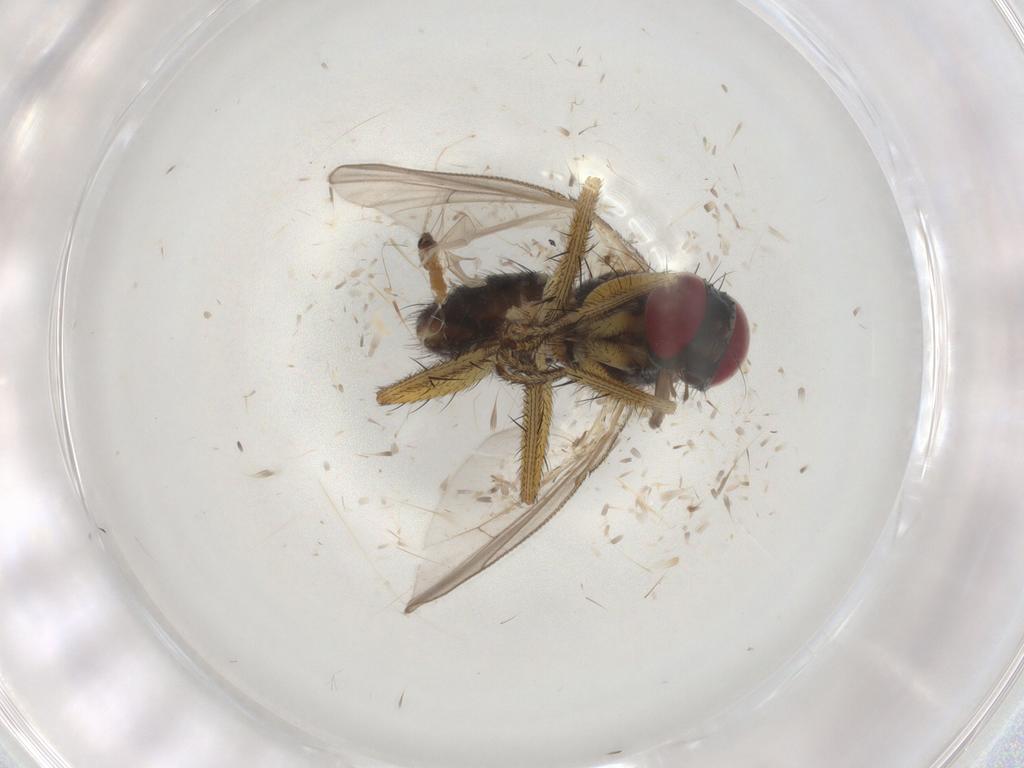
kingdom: Animalia
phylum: Arthropoda
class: Insecta
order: Diptera
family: Muscidae
